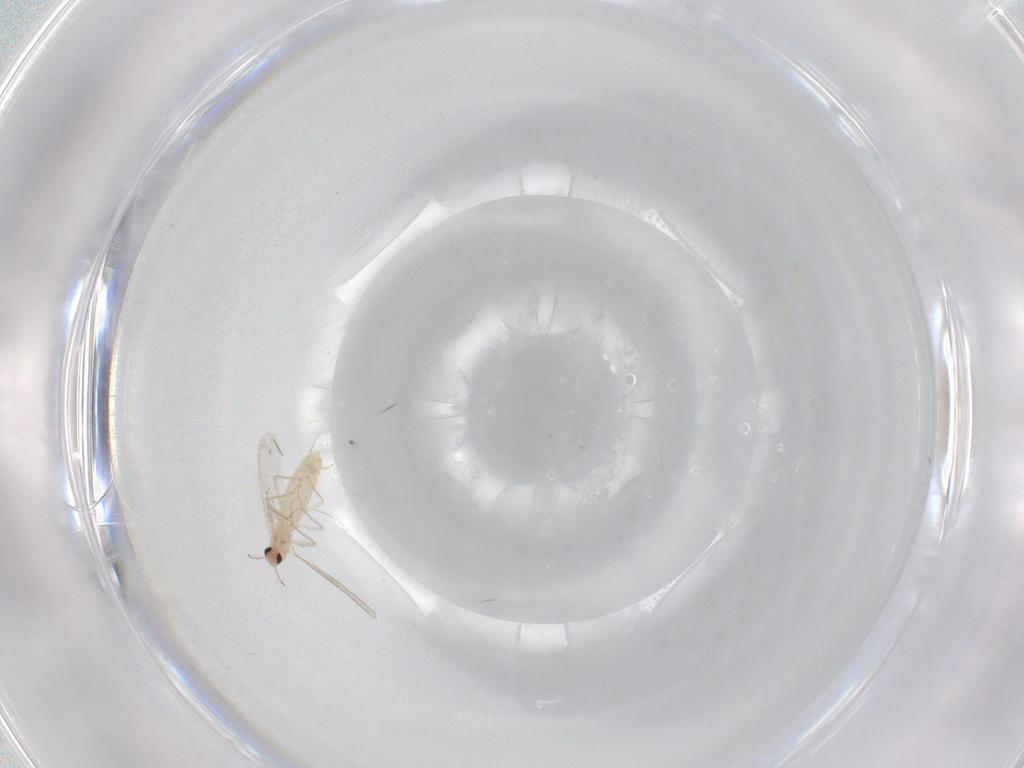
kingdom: Animalia
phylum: Arthropoda
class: Insecta
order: Diptera
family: Chironomidae
